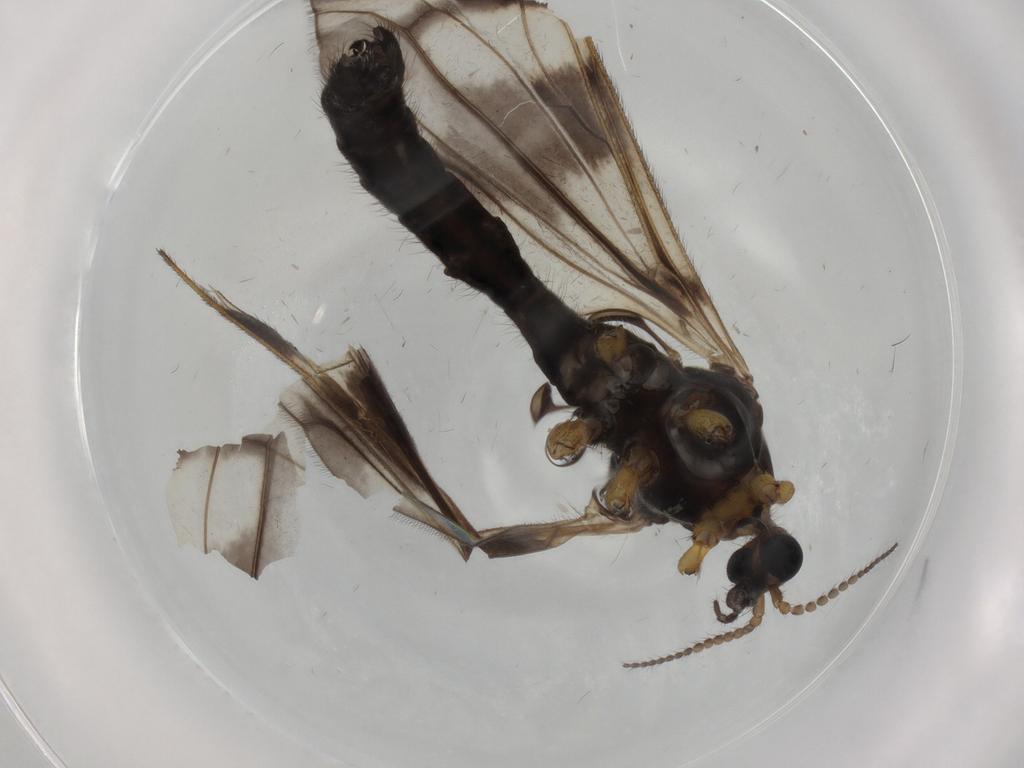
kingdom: Animalia
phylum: Arthropoda
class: Insecta
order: Diptera
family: Limoniidae
